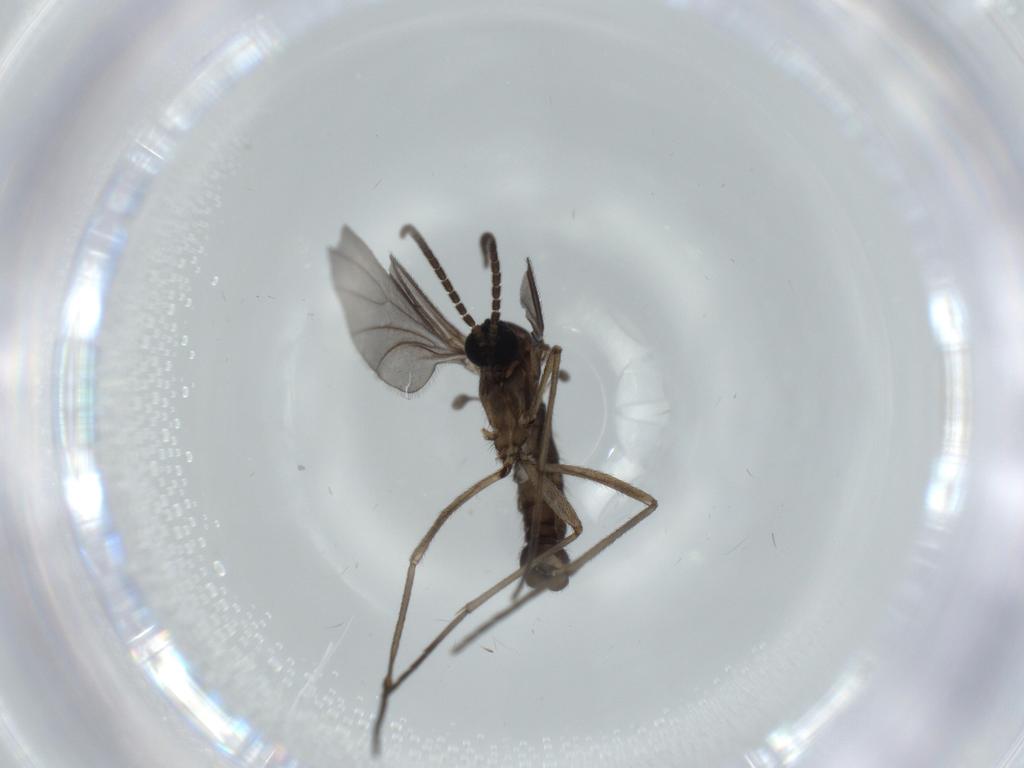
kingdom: Animalia
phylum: Arthropoda
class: Insecta
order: Diptera
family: Sciaridae
